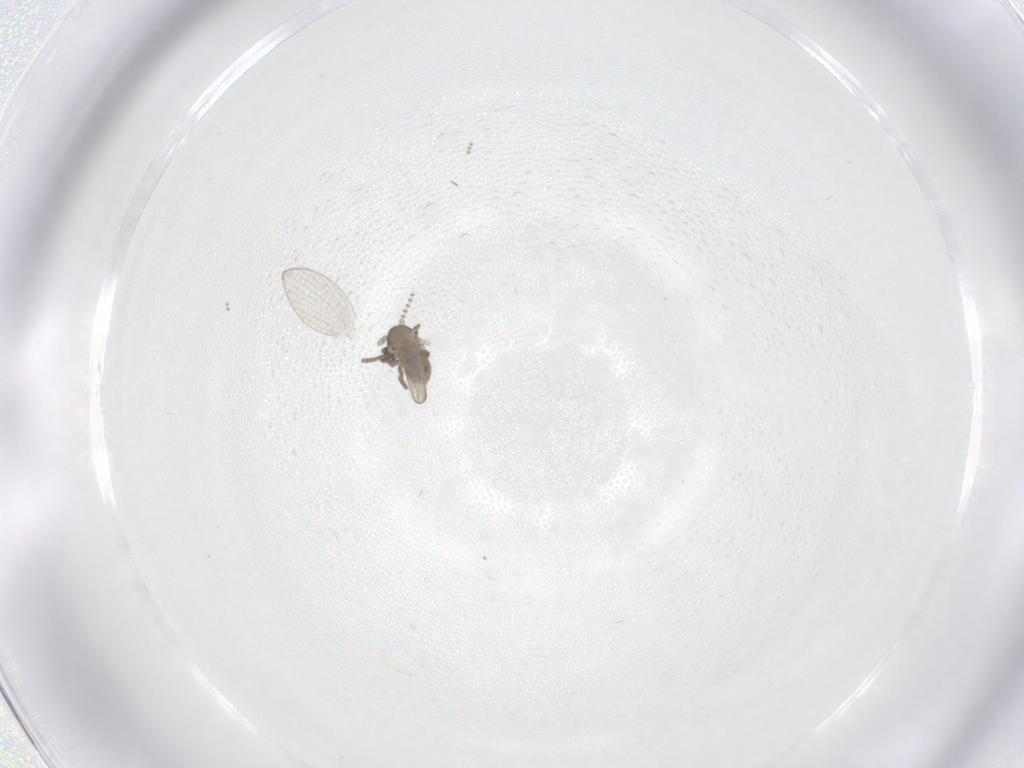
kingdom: Animalia
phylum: Arthropoda
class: Insecta
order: Diptera
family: Psychodidae
